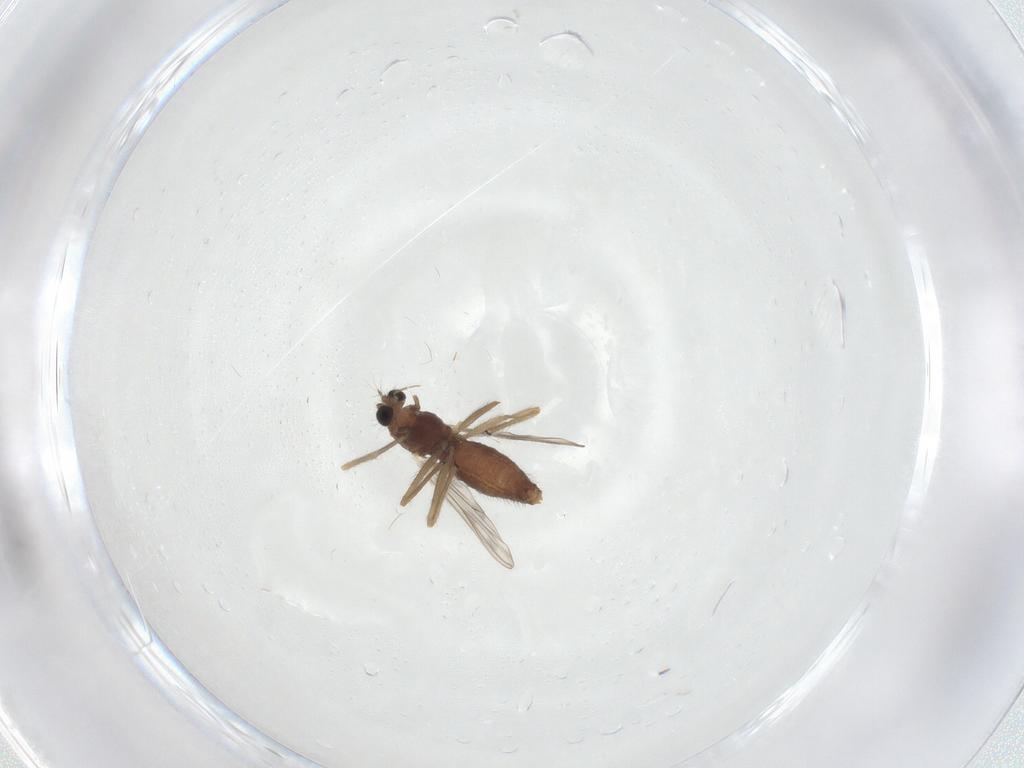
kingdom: Animalia
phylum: Arthropoda
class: Insecta
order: Diptera
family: Chironomidae
